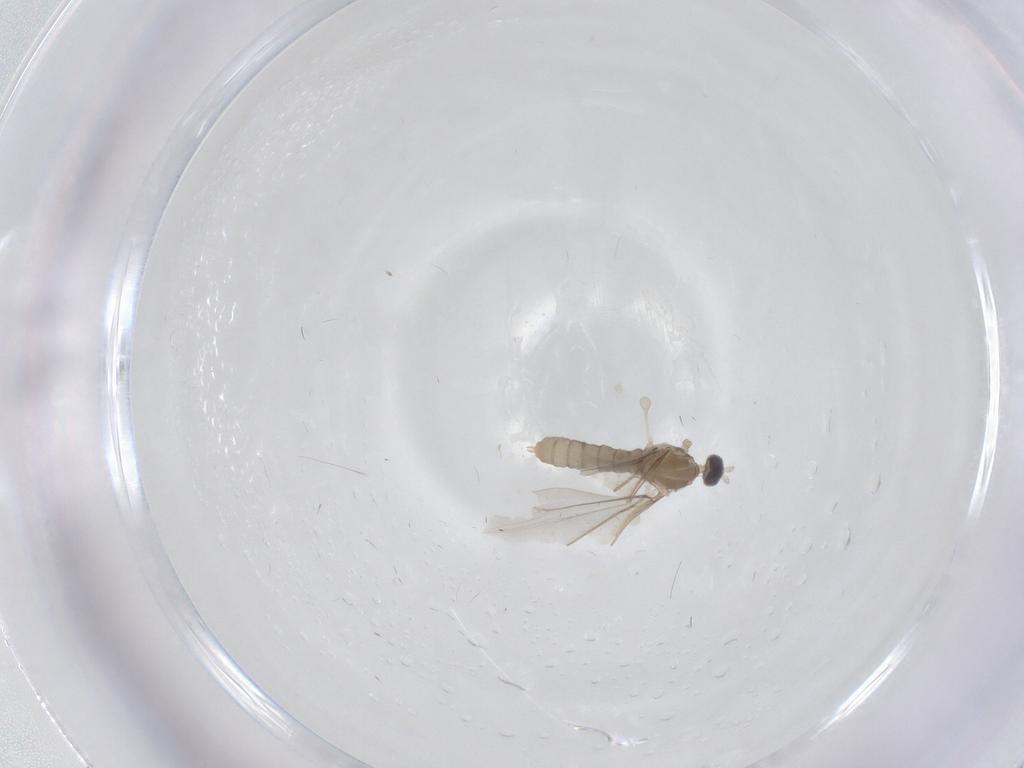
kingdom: Animalia
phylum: Arthropoda
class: Insecta
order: Diptera
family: Cecidomyiidae
